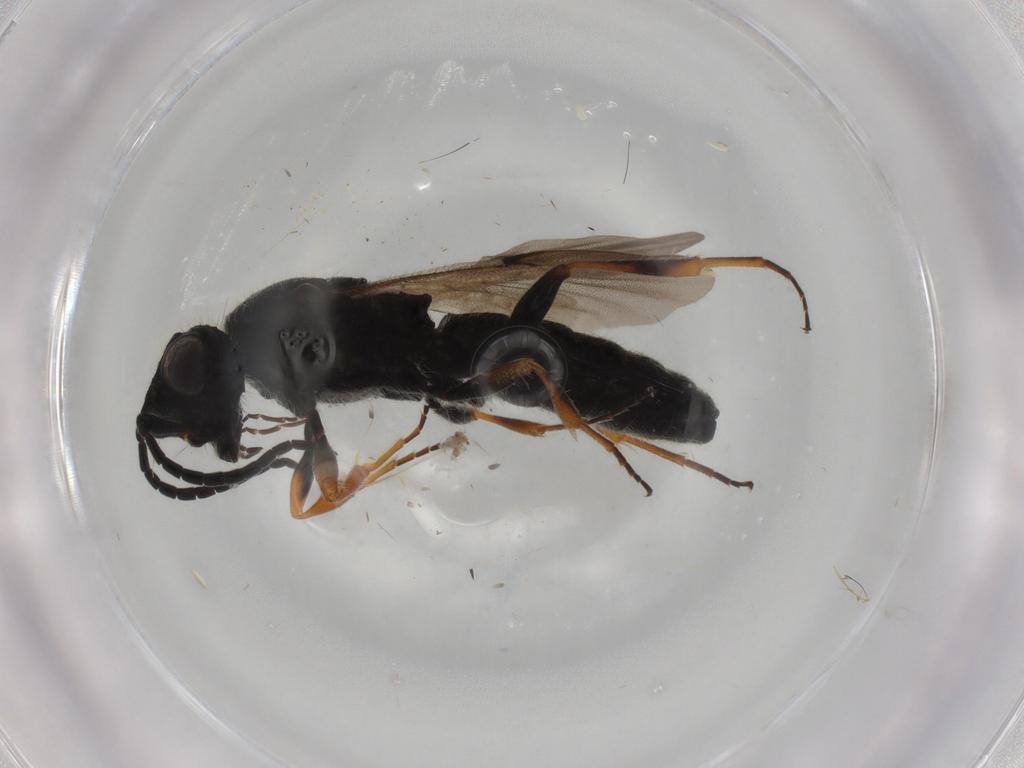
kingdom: Animalia
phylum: Arthropoda
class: Insecta
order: Hymenoptera
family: Scelionidae
